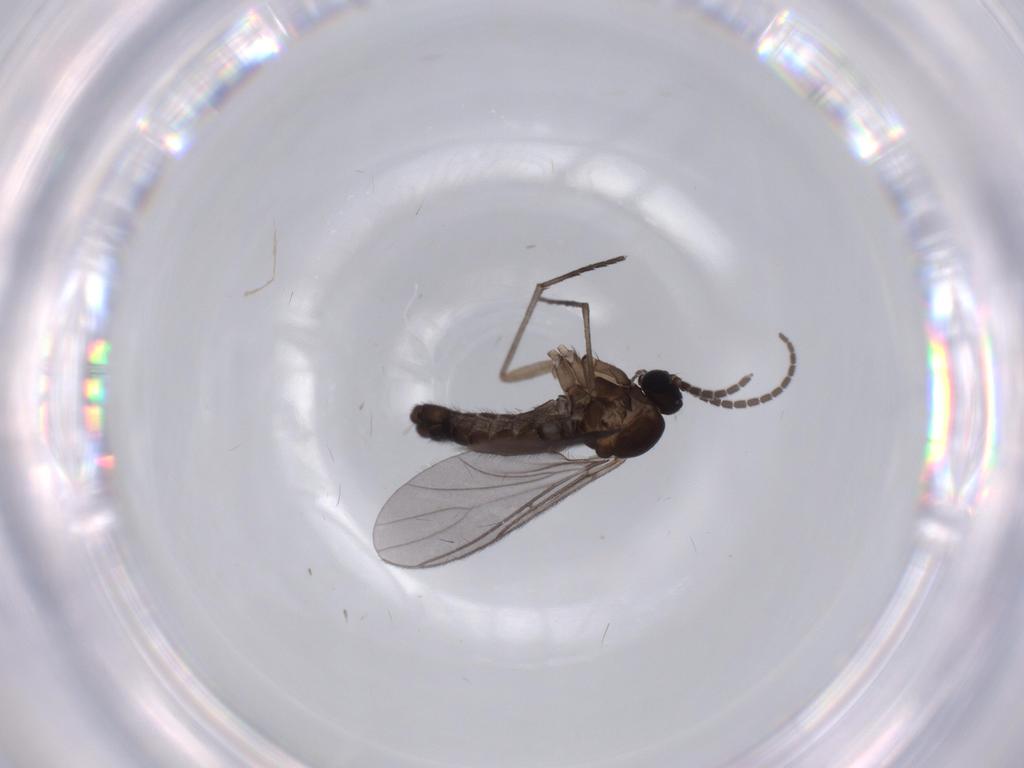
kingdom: Animalia
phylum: Arthropoda
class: Insecta
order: Diptera
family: Sciaridae
